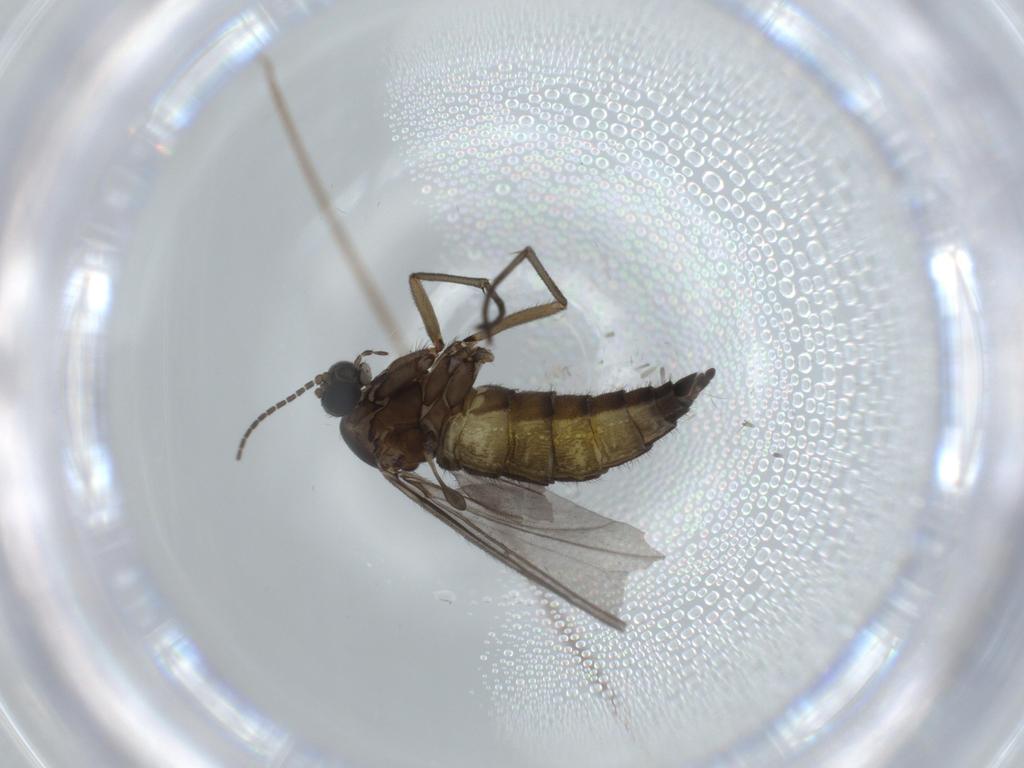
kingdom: Animalia
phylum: Arthropoda
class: Insecta
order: Diptera
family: Sciaridae
